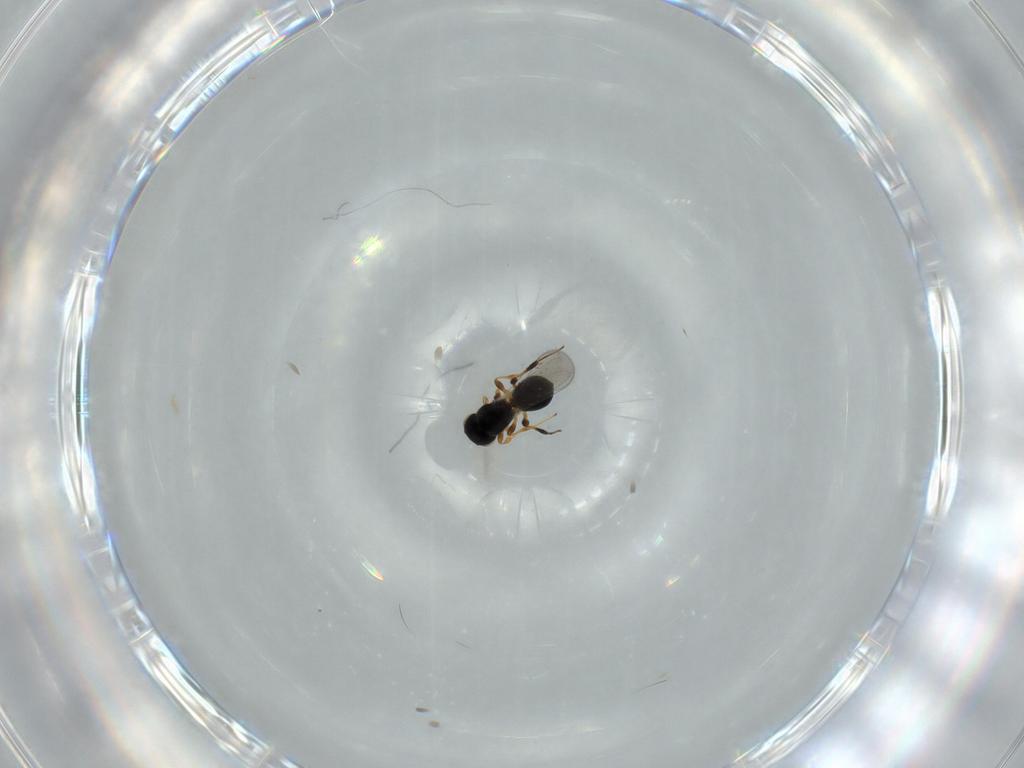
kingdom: Animalia
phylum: Arthropoda
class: Insecta
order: Hymenoptera
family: Platygastridae
